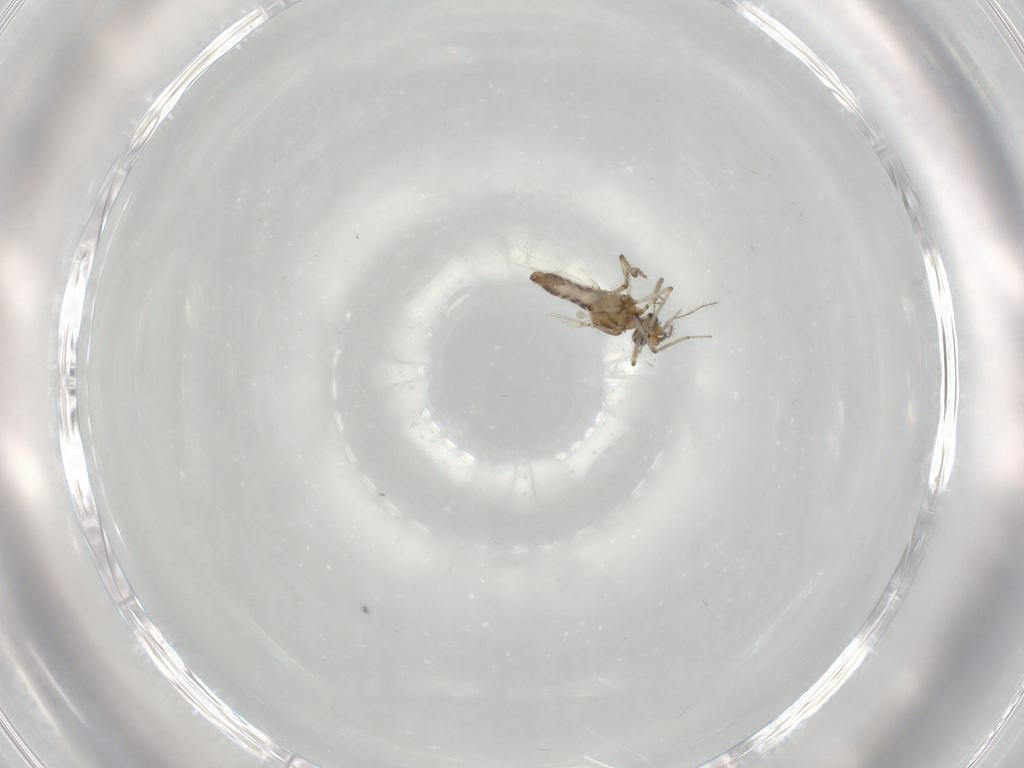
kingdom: Animalia
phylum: Arthropoda
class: Insecta
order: Diptera
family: Ceratopogonidae
